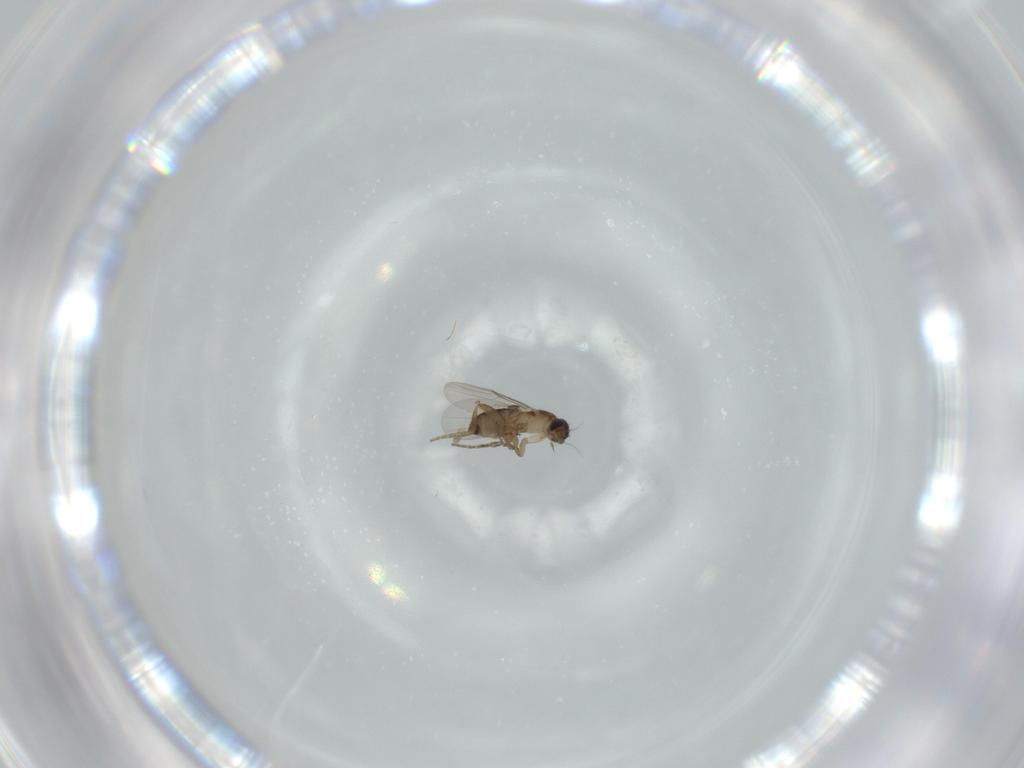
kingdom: Animalia
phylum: Arthropoda
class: Insecta
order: Diptera
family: Phoridae
